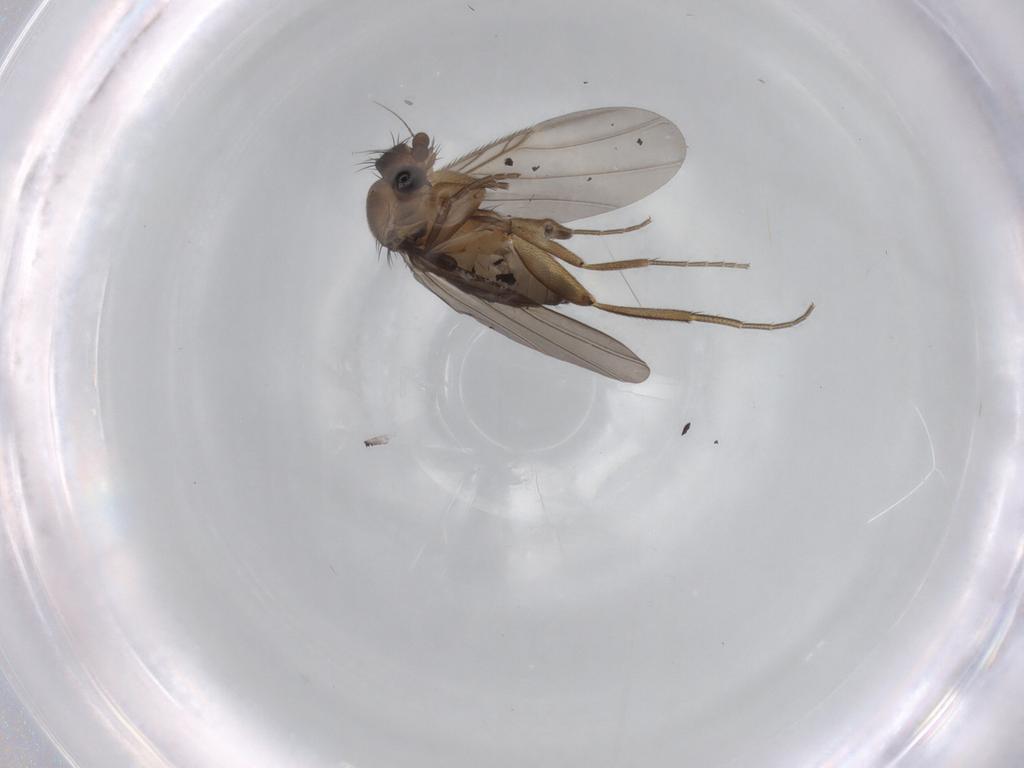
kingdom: Animalia
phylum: Arthropoda
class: Insecta
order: Diptera
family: Phoridae
